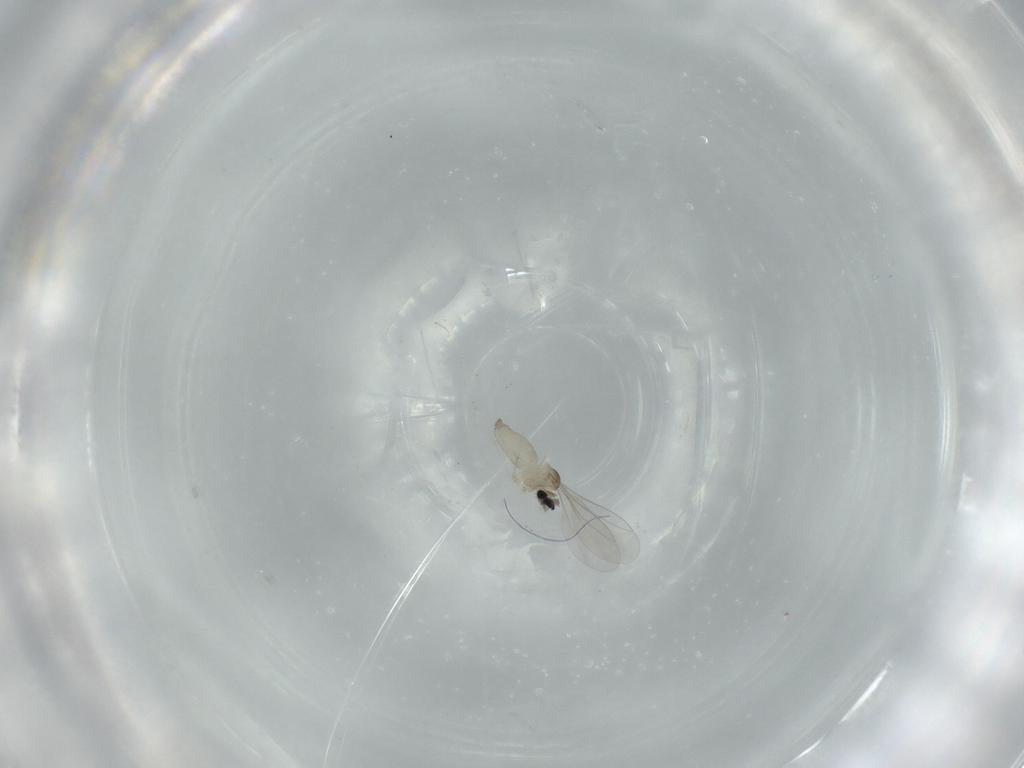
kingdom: Animalia
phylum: Arthropoda
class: Insecta
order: Diptera
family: Cecidomyiidae
